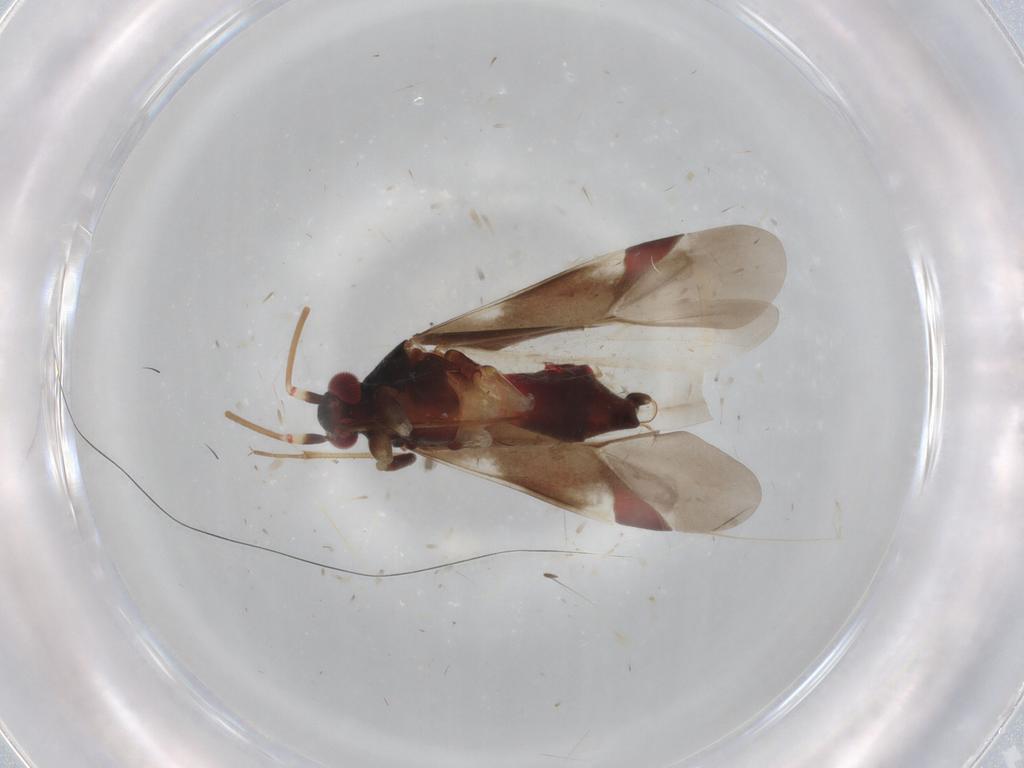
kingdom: Animalia
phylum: Arthropoda
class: Insecta
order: Hemiptera
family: Miridae
